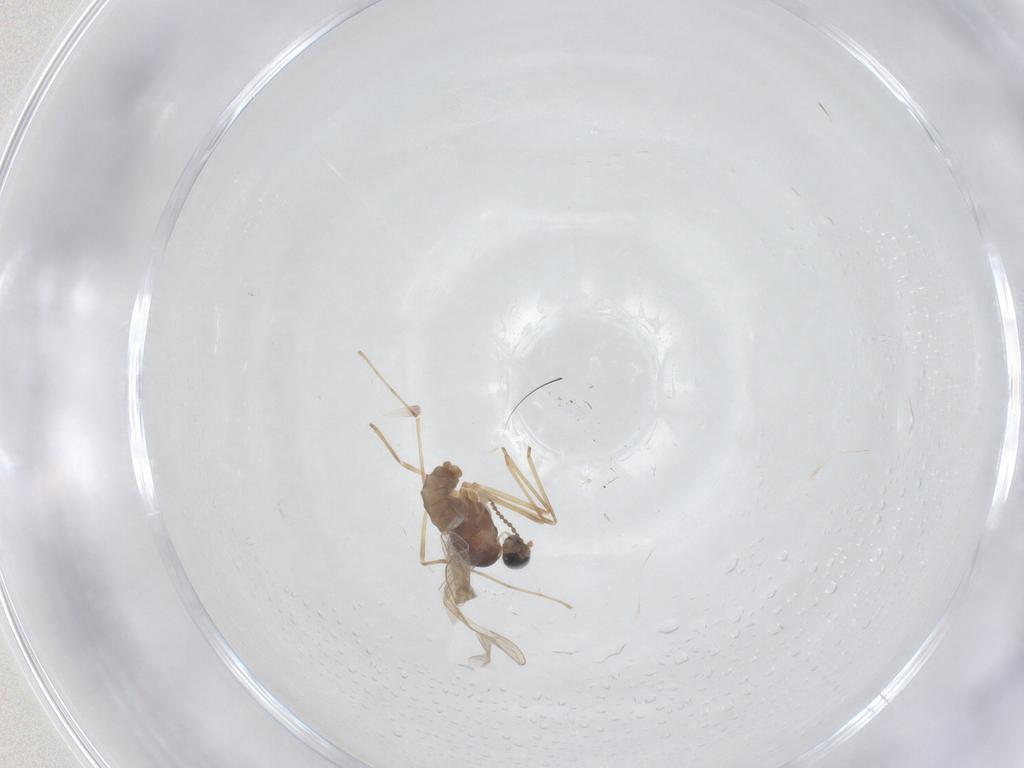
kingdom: Animalia
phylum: Arthropoda
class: Insecta
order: Diptera
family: Cecidomyiidae
